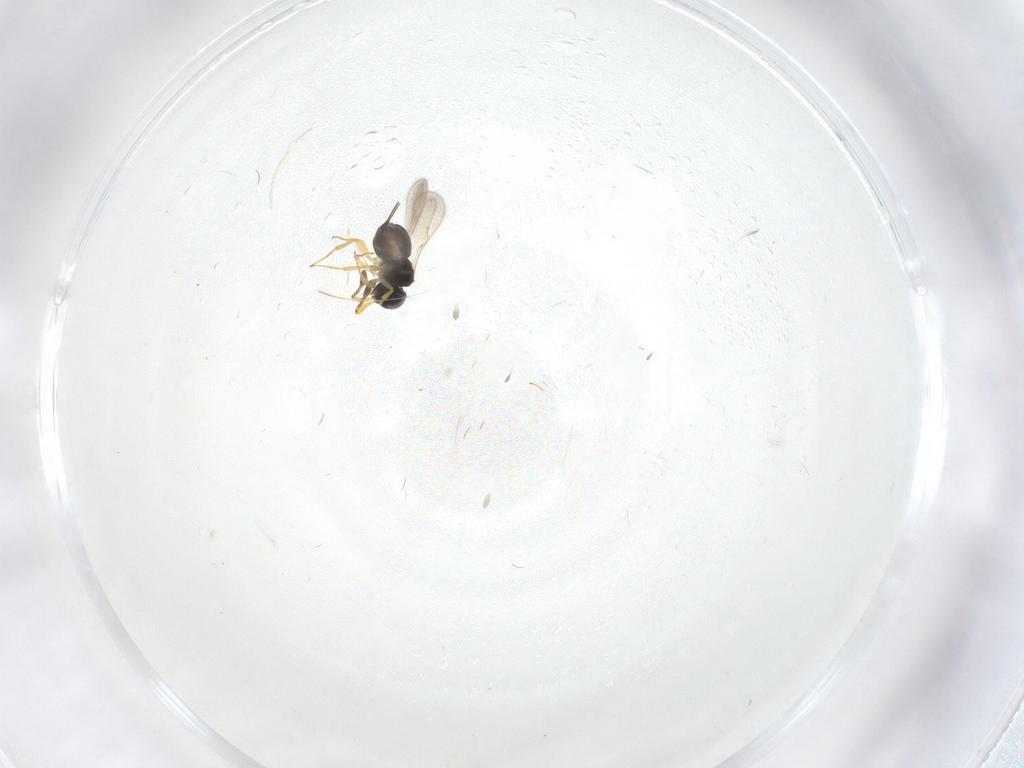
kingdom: Animalia
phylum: Arthropoda
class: Insecta
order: Hymenoptera
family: Scelionidae
